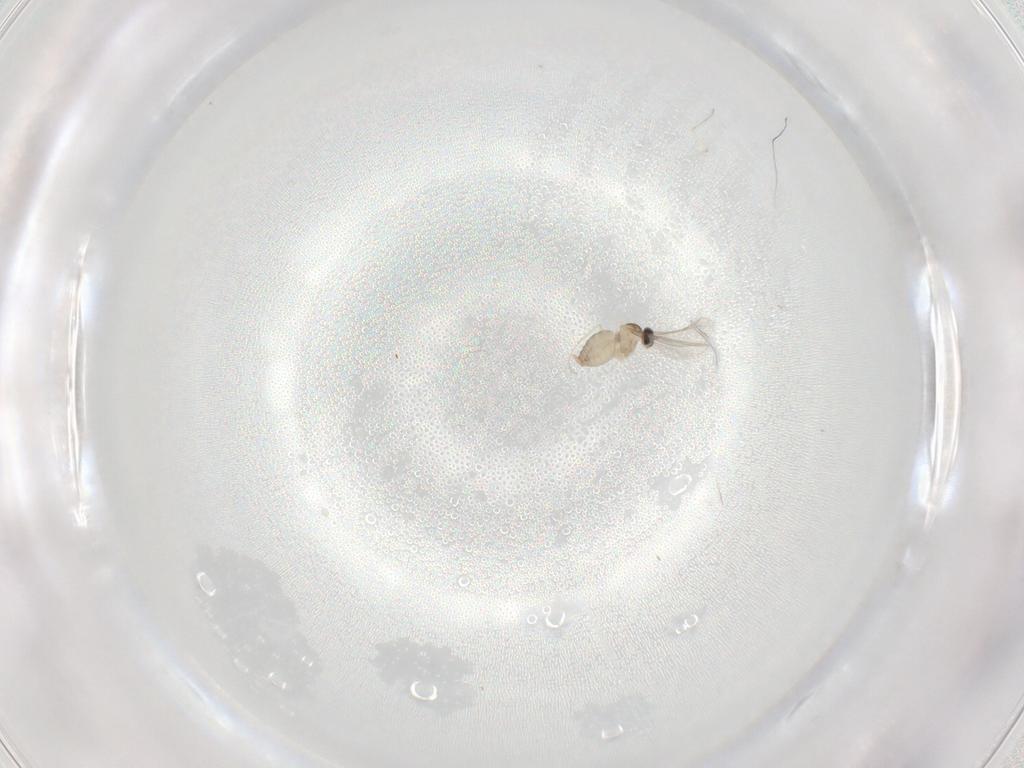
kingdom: Animalia
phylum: Arthropoda
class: Insecta
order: Diptera
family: Cecidomyiidae
